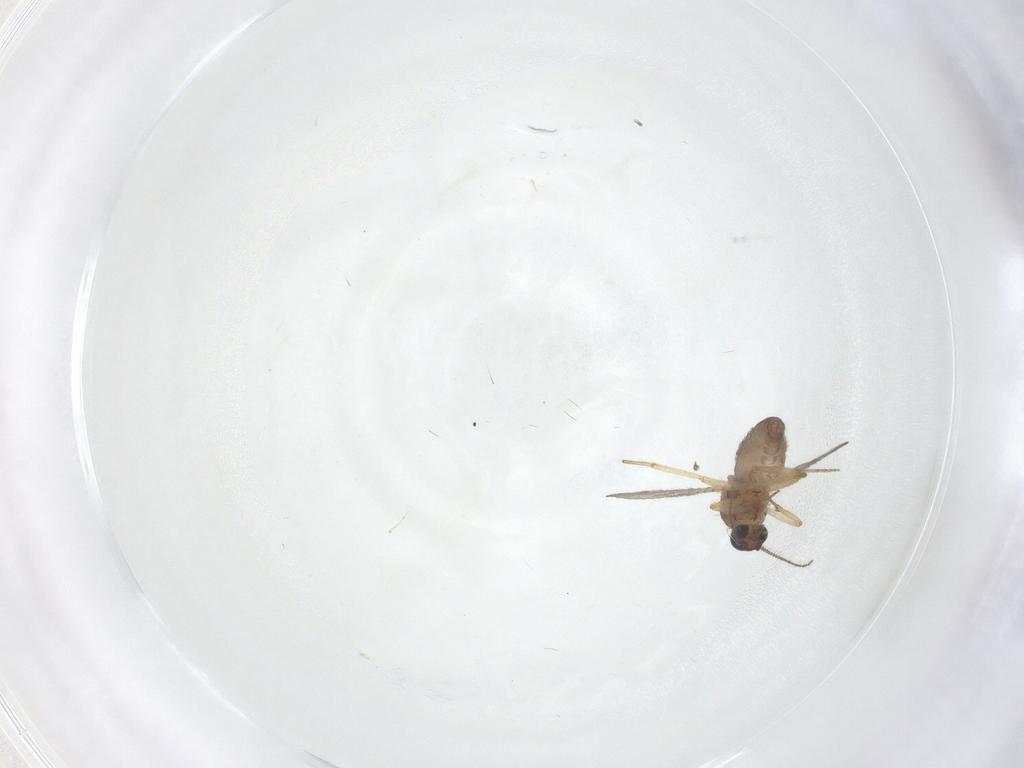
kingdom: Animalia
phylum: Arthropoda
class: Insecta
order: Diptera
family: Ceratopogonidae
